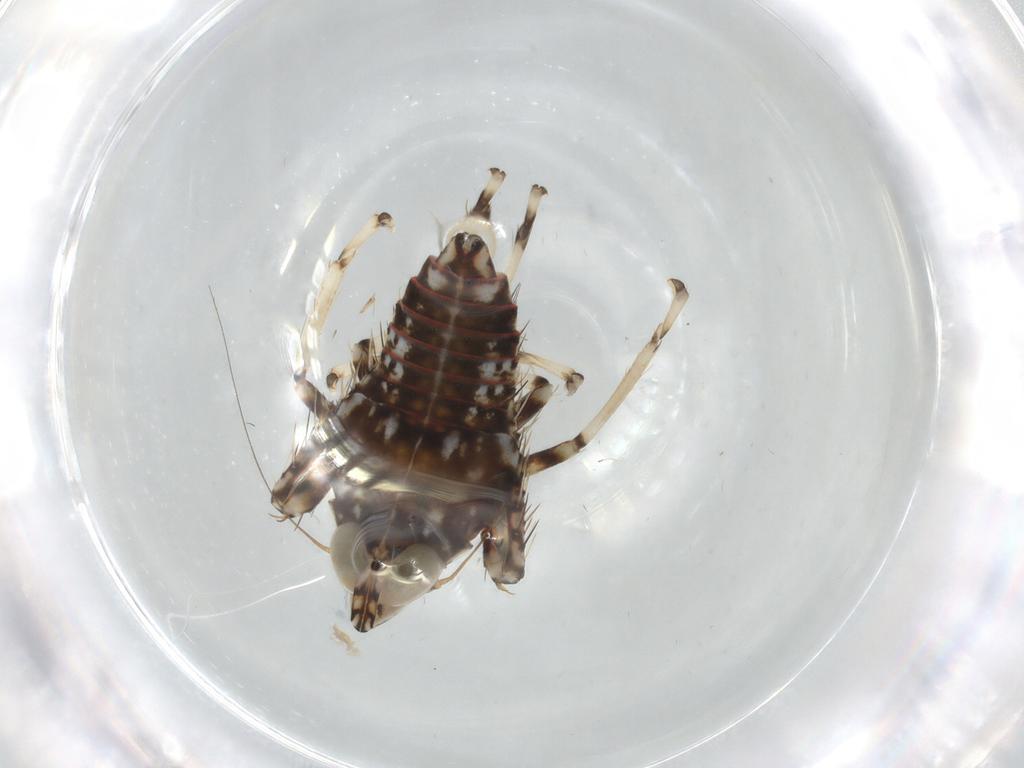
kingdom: Animalia
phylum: Arthropoda
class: Insecta
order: Hemiptera
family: Cicadellidae
